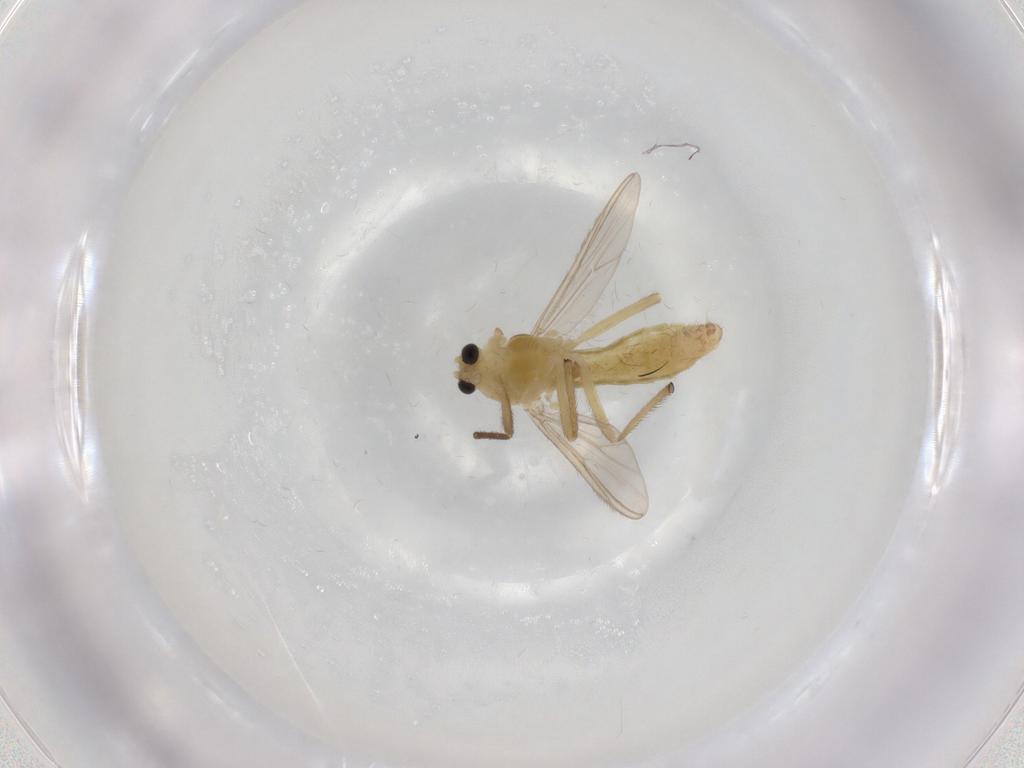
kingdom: Animalia
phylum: Arthropoda
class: Insecta
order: Diptera
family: Chironomidae
